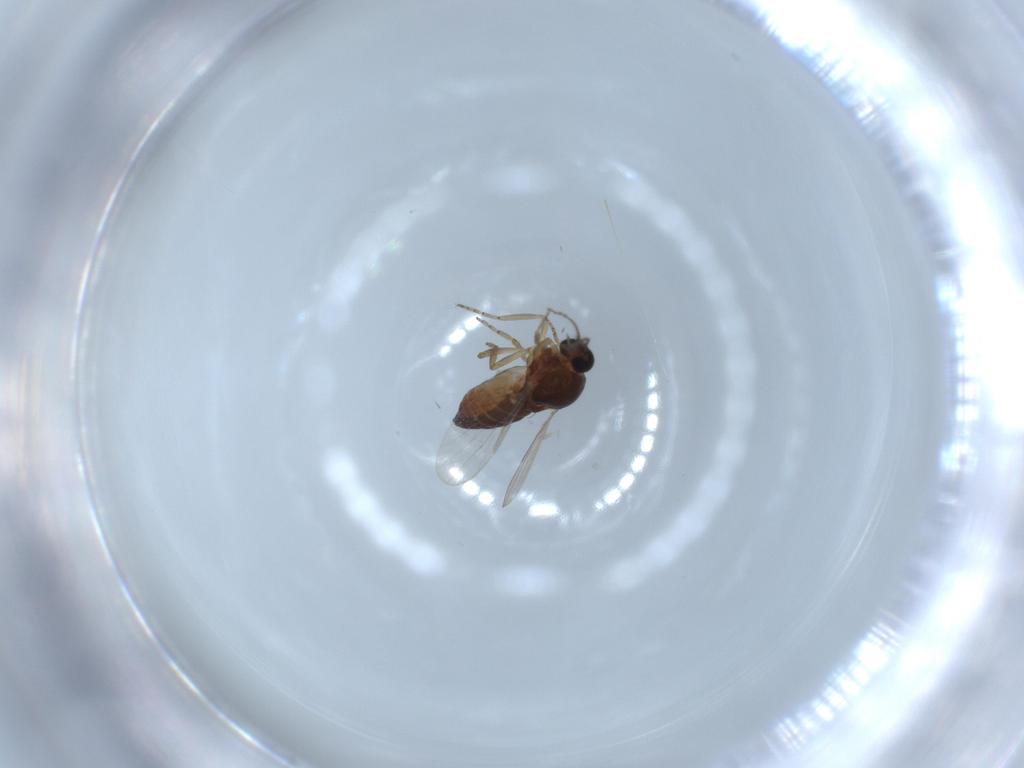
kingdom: Animalia
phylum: Arthropoda
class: Insecta
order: Diptera
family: Ceratopogonidae
